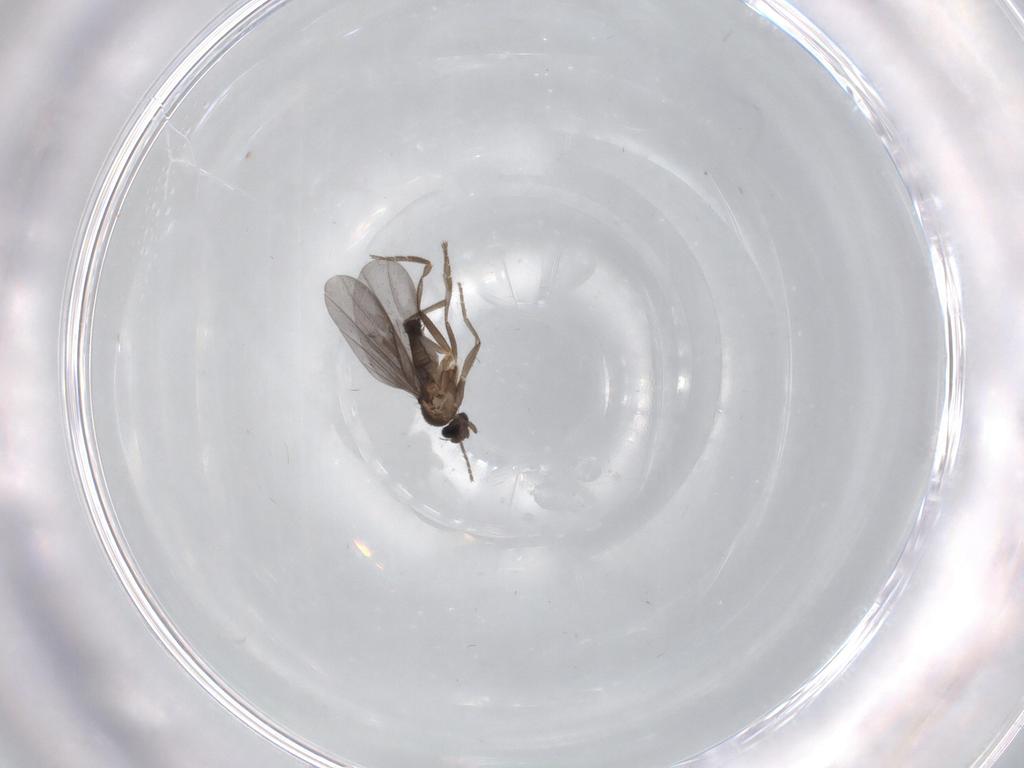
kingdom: Animalia
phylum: Arthropoda
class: Insecta
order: Diptera
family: Phoridae
